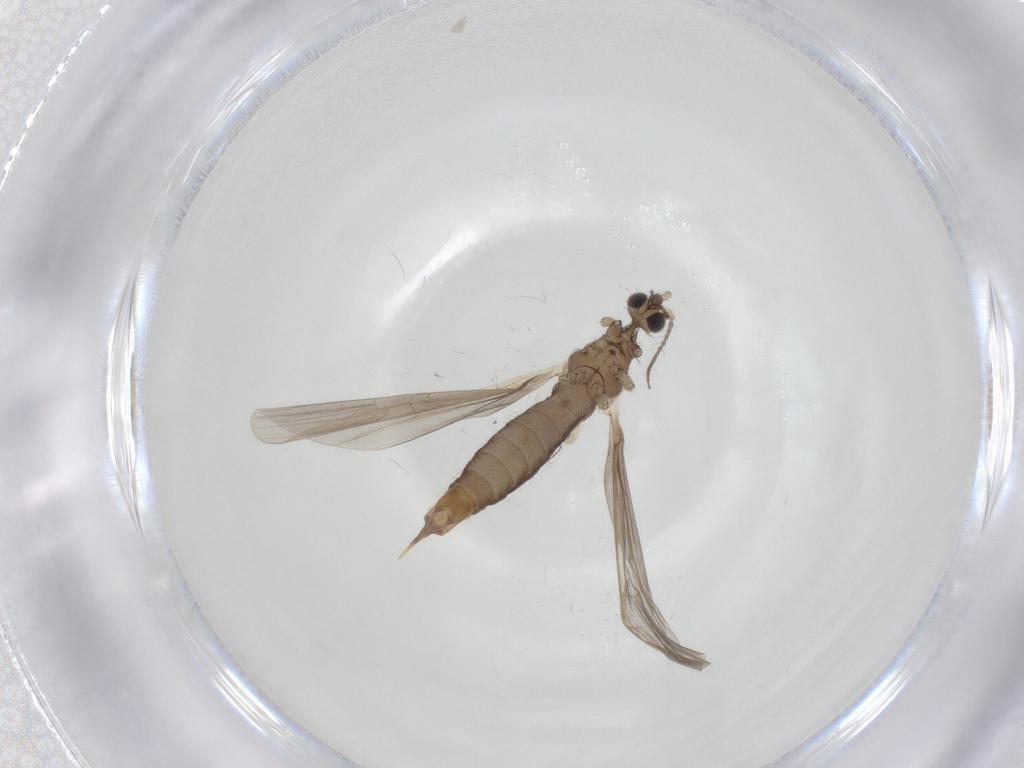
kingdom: Animalia
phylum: Arthropoda
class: Insecta
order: Diptera
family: Limoniidae
